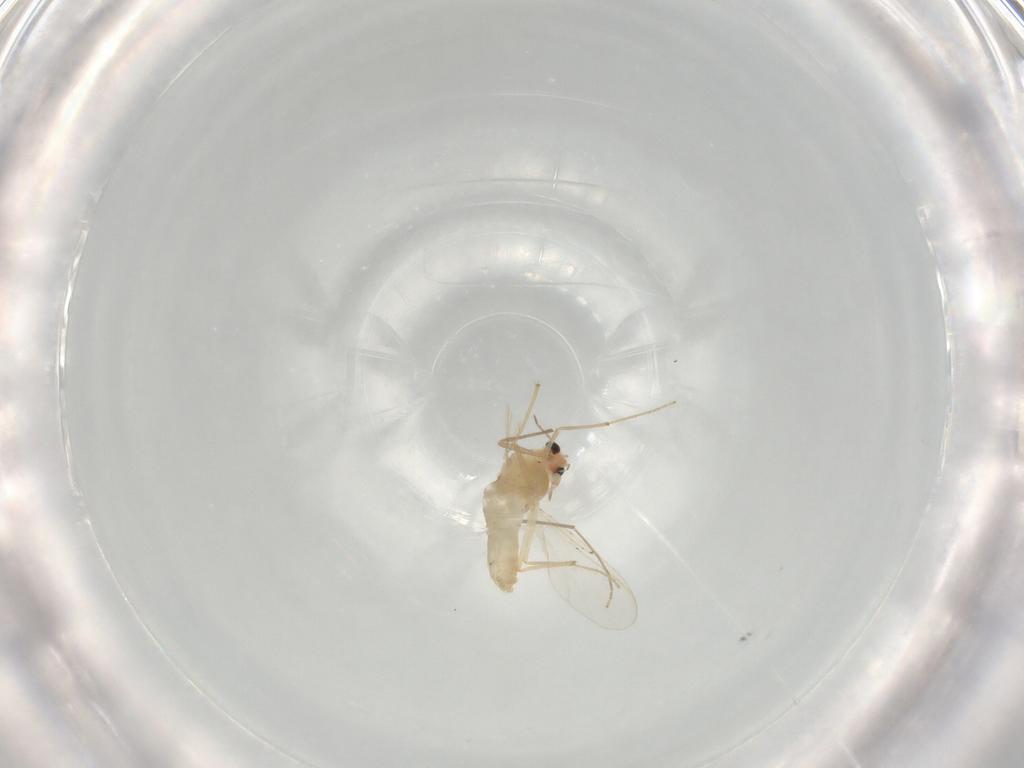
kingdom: Animalia
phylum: Arthropoda
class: Insecta
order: Diptera
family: Chironomidae
